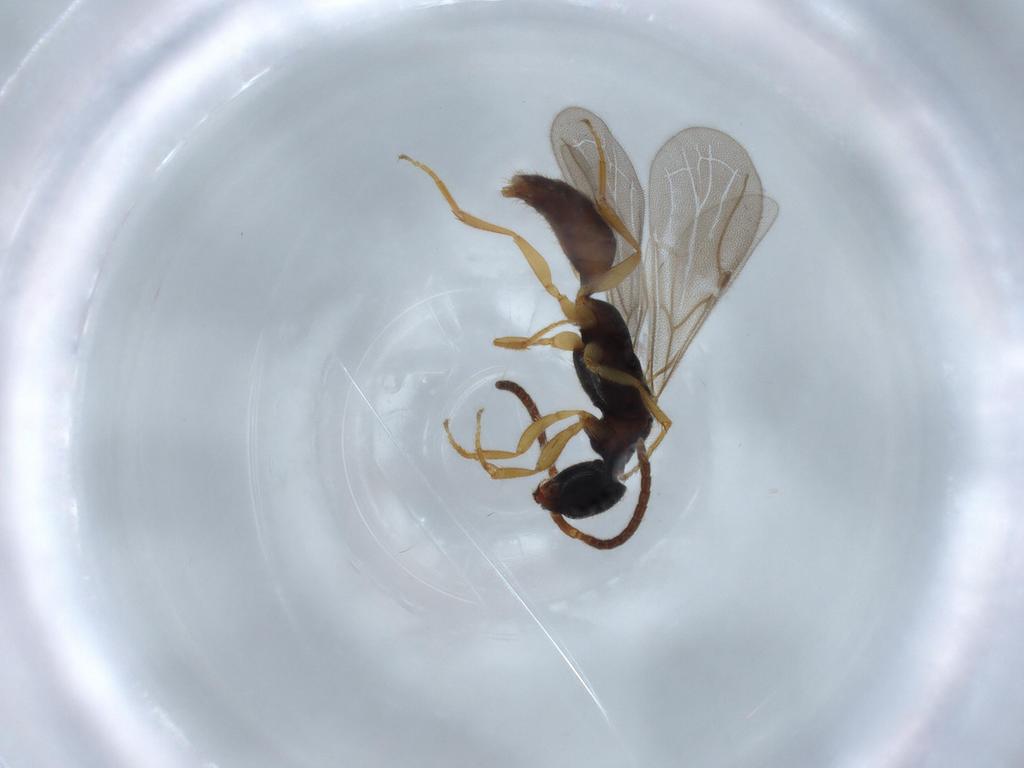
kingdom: Animalia
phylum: Arthropoda
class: Insecta
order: Hymenoptera
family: Bethylidae
